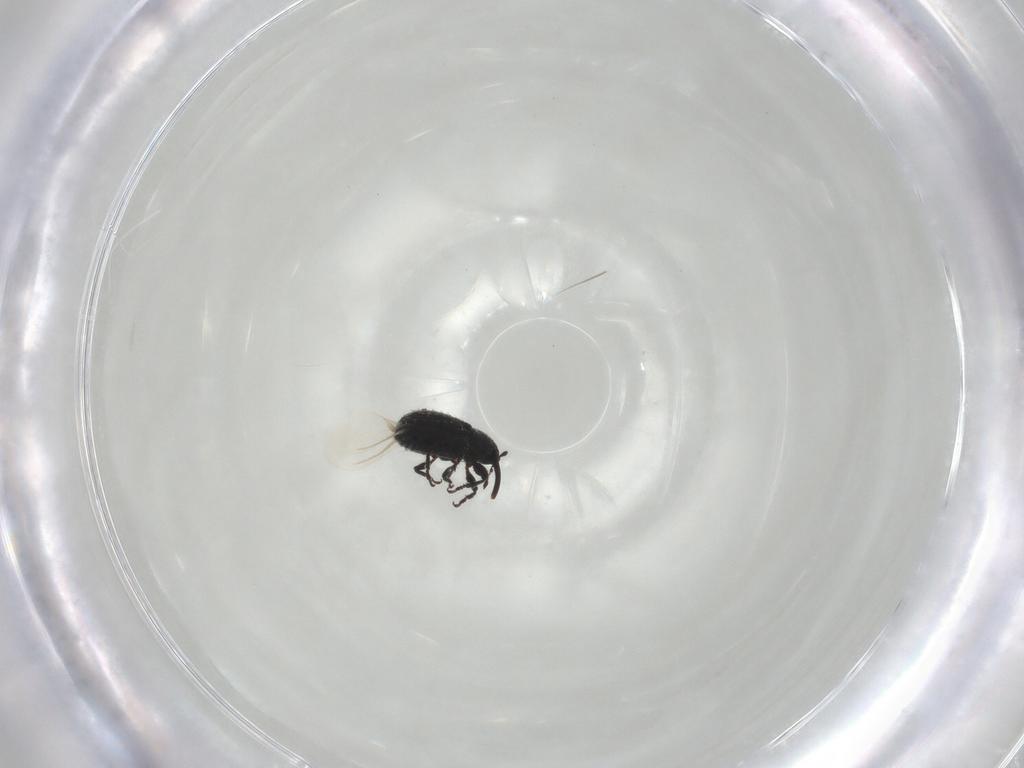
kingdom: Animalia
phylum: Arthropoda
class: Insecta
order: Coleoptera
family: Curculionidae
